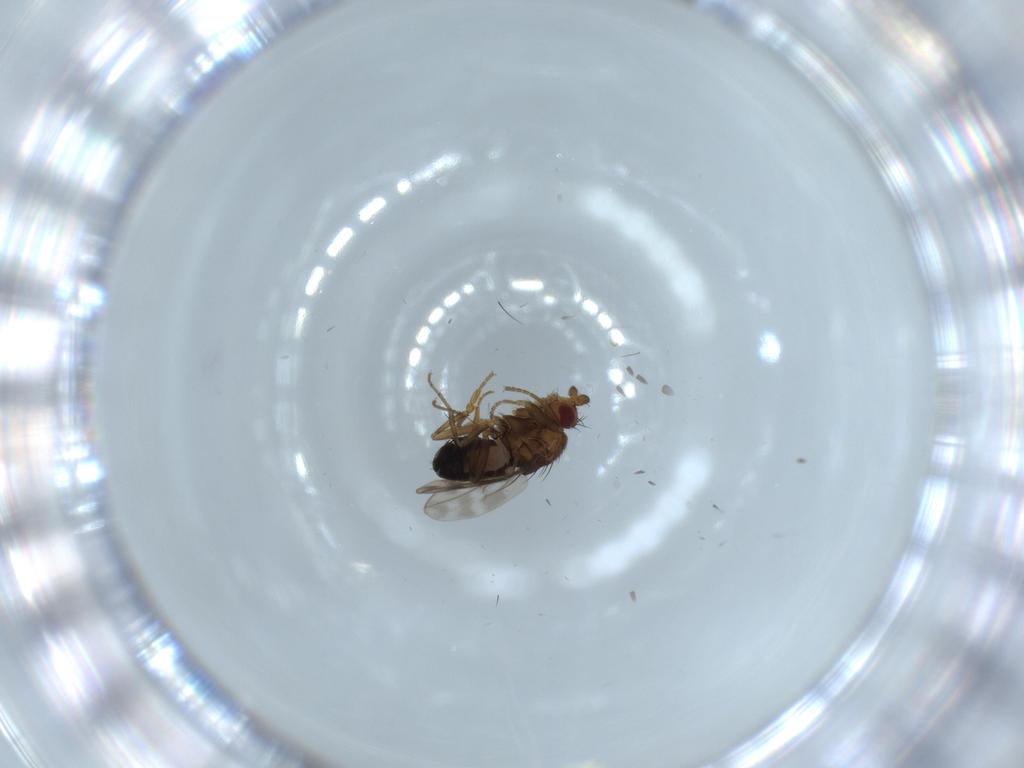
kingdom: Animalia
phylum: Arthropoda
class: Insecta
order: Diptera
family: Sphaeroceridae
